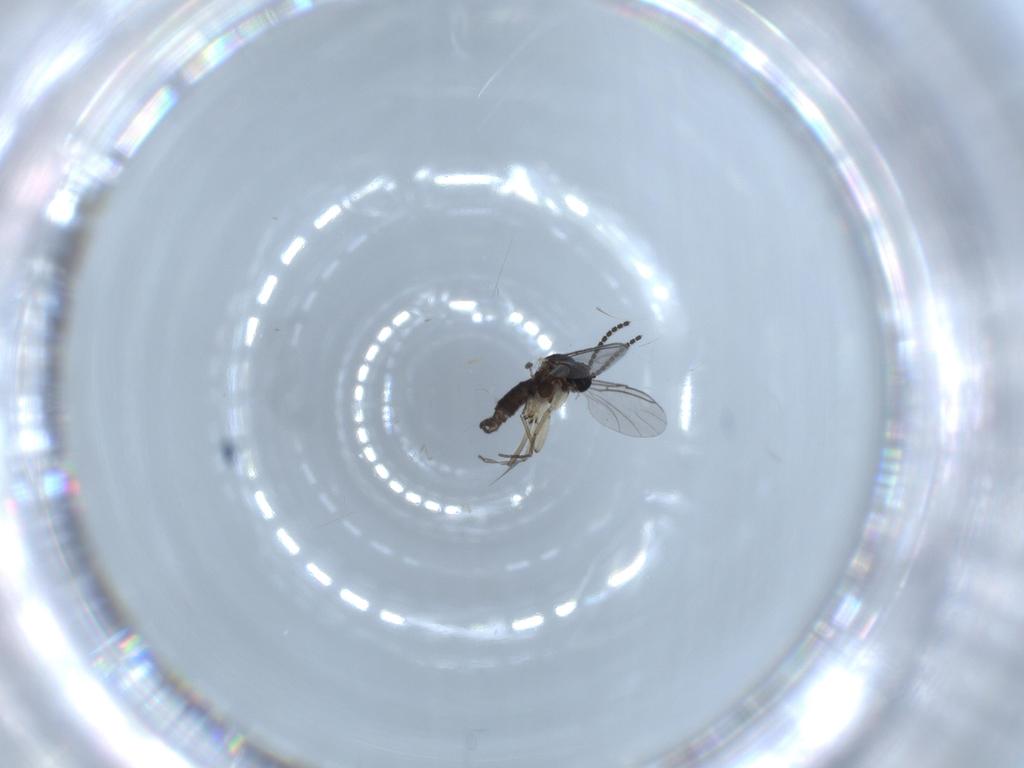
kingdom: Animalia
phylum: Arthropoda
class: Insecta
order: Diptera
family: Sciaridae
